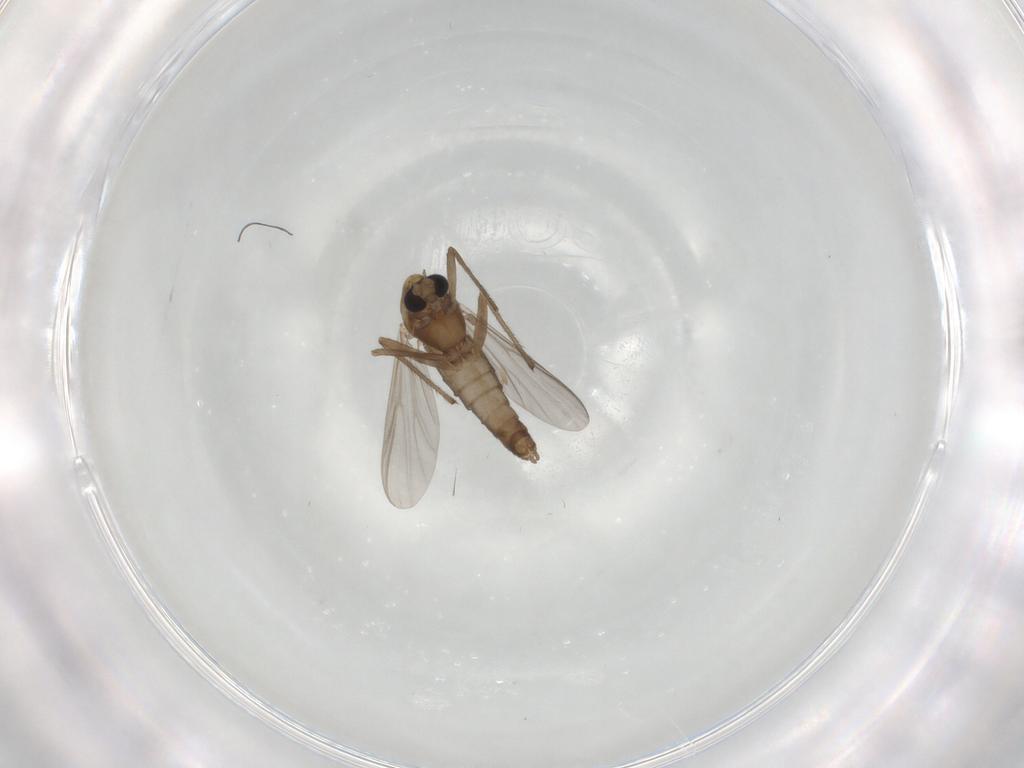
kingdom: Animalia
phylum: Arthropoda
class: Insecta
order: Diptera
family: Chironomidae
